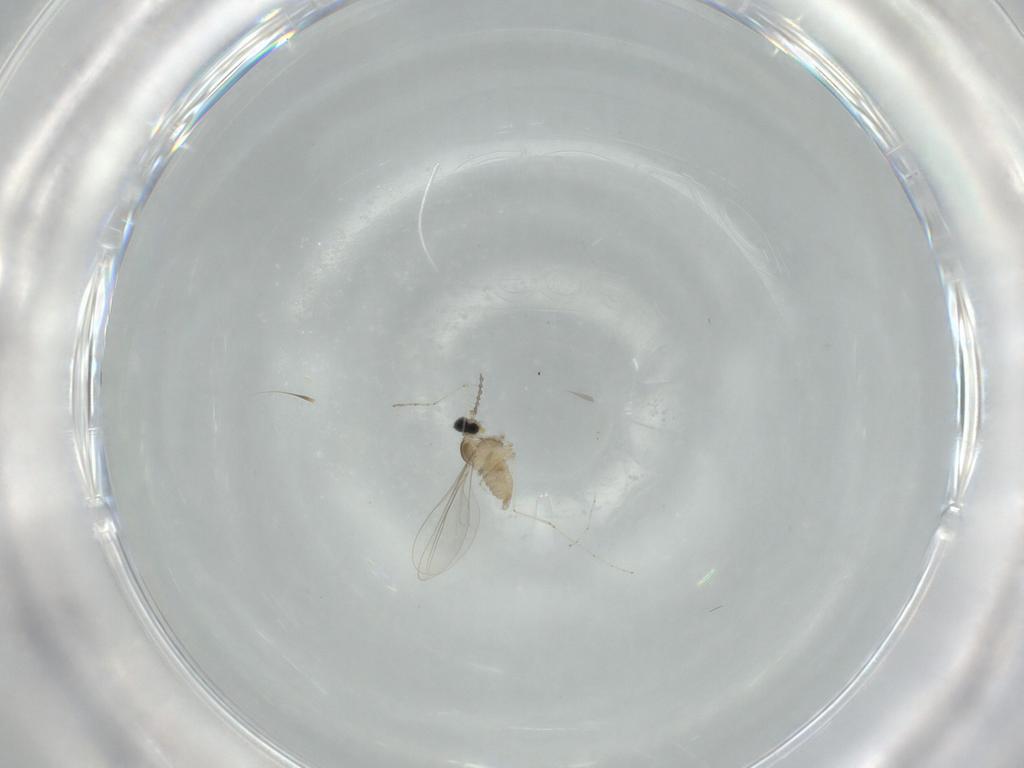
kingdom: Animalia
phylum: Arthropoda
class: Insecta
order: Diptera
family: Cecidomyiidae
